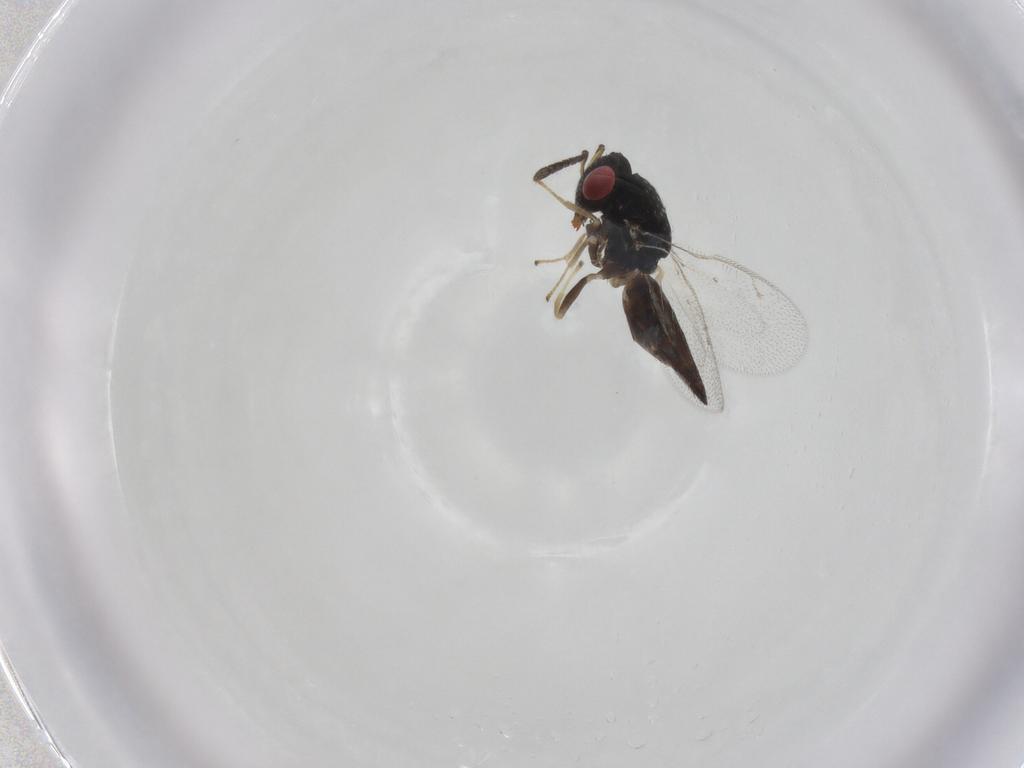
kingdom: Animalia
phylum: Arthropoda
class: Insecta
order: Hymenoptera
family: Pteromalidae
